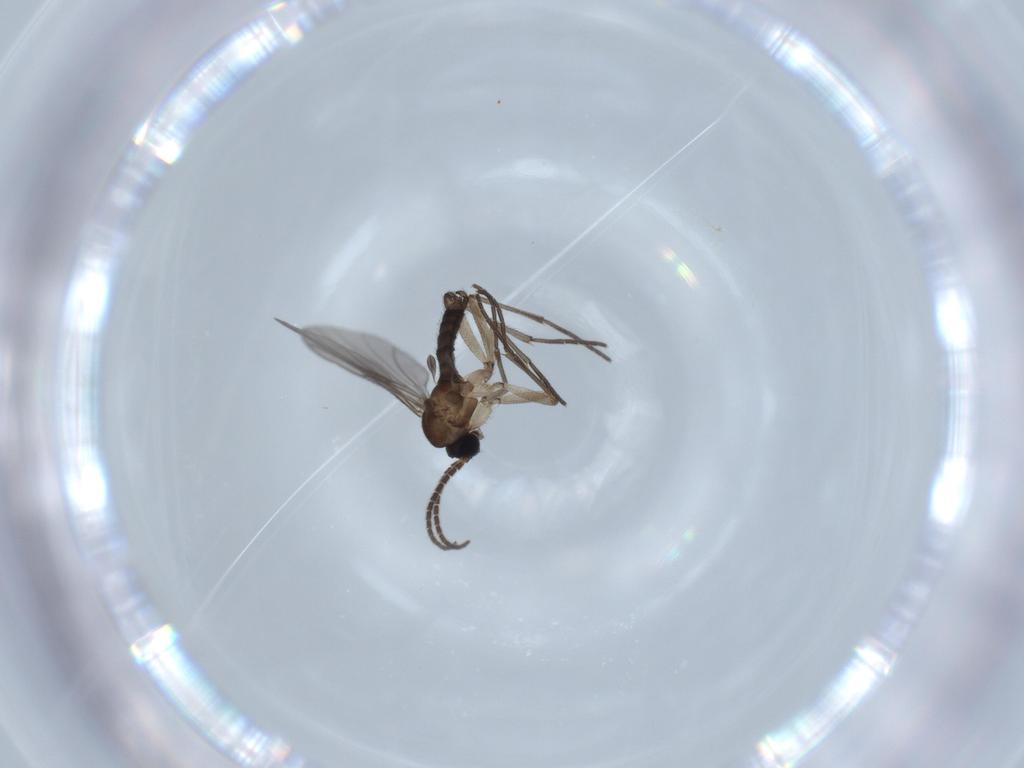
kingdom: Animalia
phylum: Arthropoda
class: Insecta
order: Diptera
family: Sciaridae
